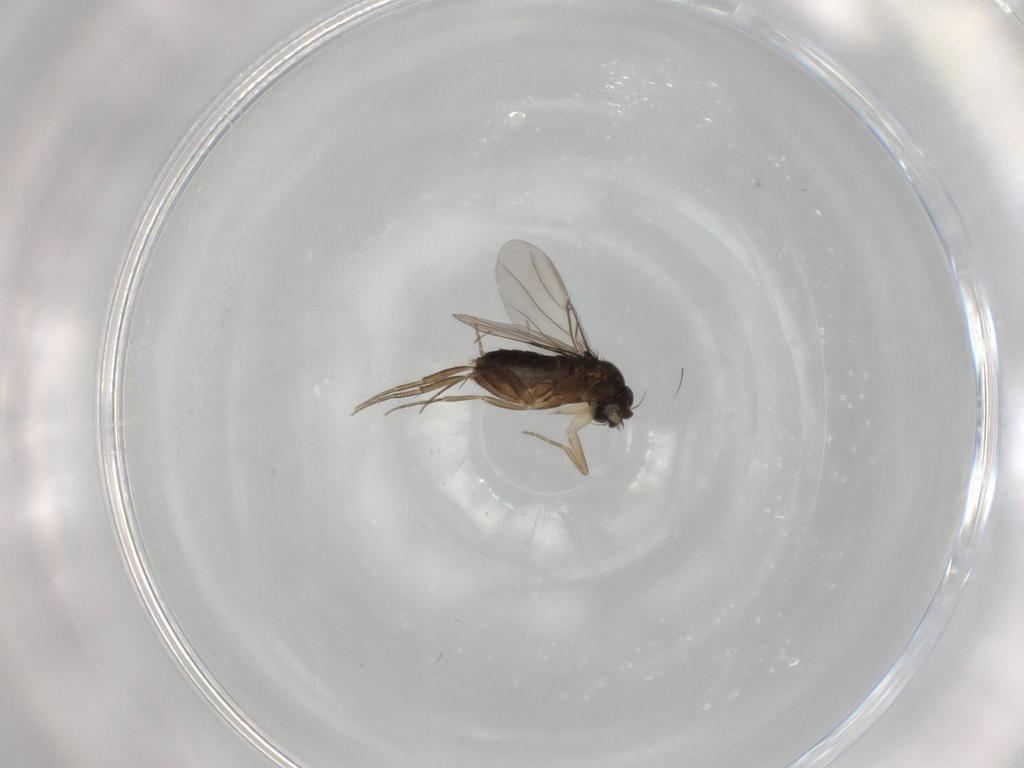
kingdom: Animalia
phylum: Arthropoda
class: Insecta
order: Diptera
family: Phoridae
